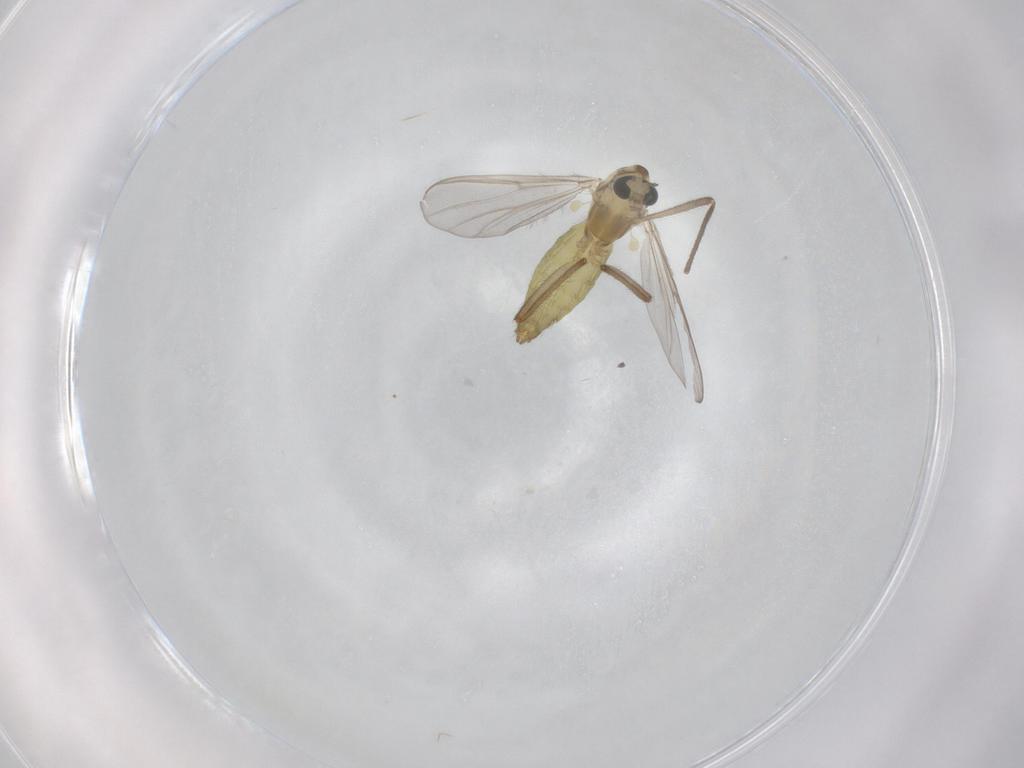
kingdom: Animalia
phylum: Arthropoda
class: Insecta
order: Diptera
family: Chironomidae
